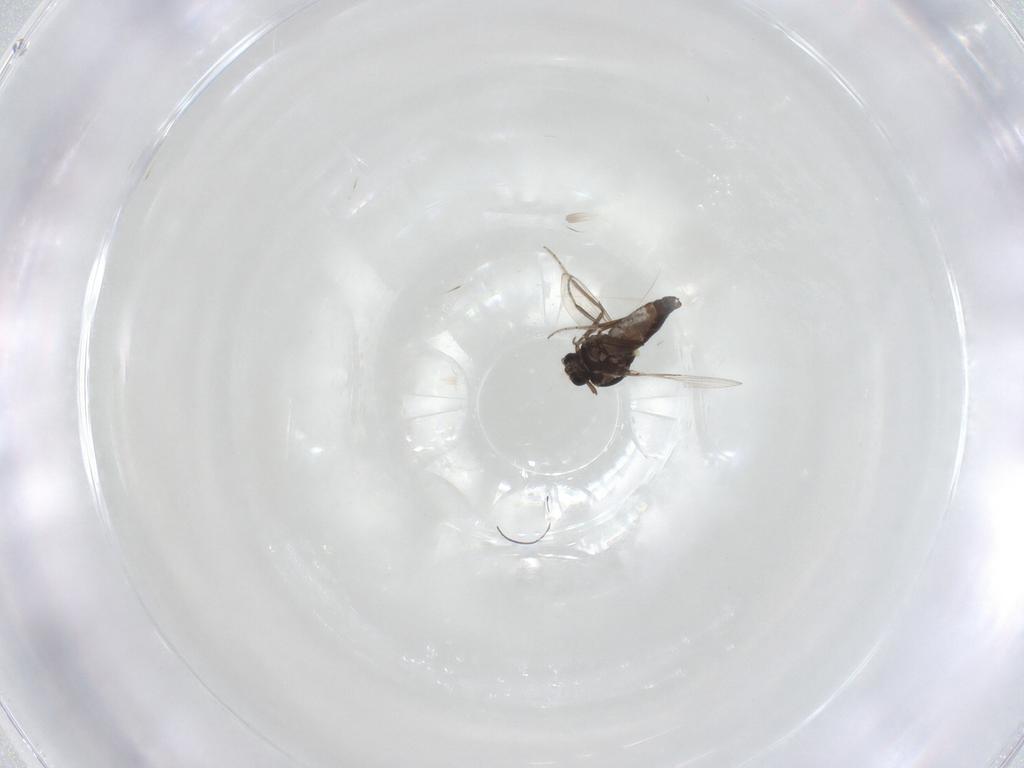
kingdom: Animalia
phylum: Arthropoda
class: Insecta
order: Diptera
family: Ceratopogonidae
